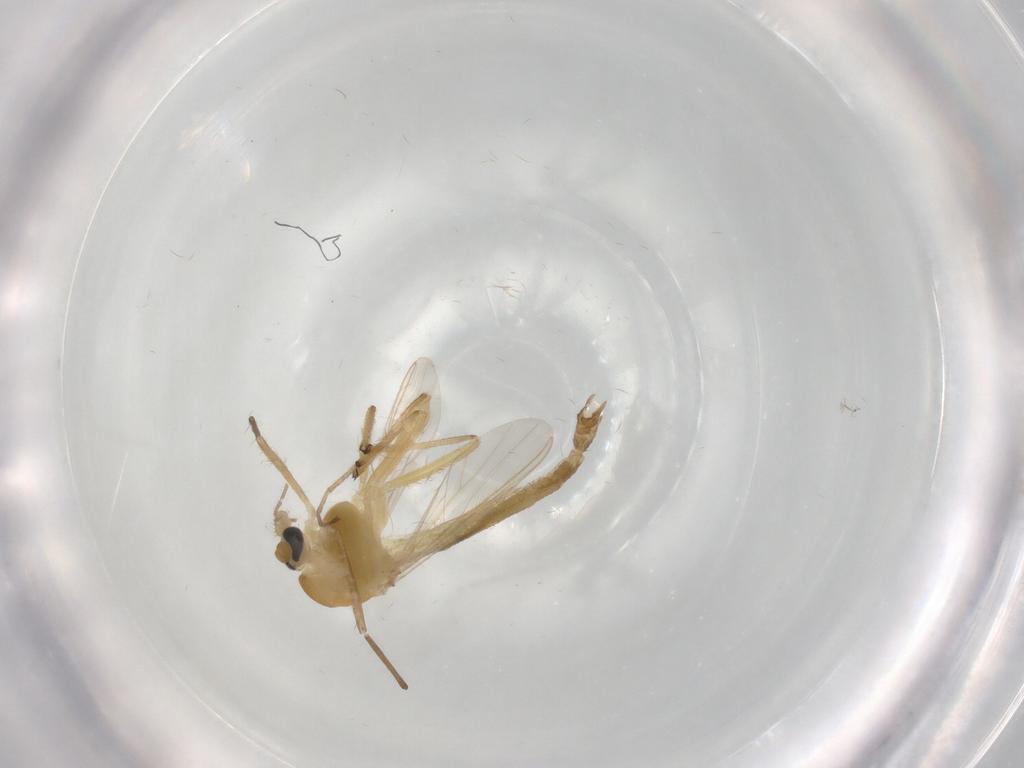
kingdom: Animalia
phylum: Arthropoda
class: Insecta
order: Diptera
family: Chironomidae
